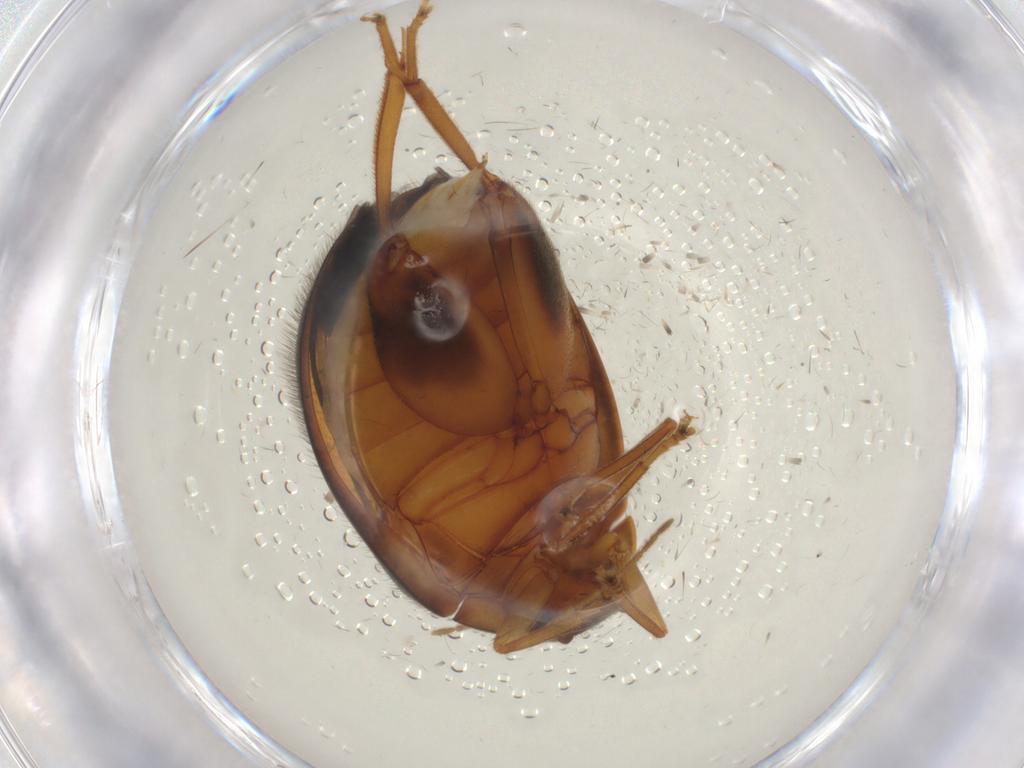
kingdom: Animalia
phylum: Arthropoda
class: Insecta
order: Coleoptera
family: Scirtidae
